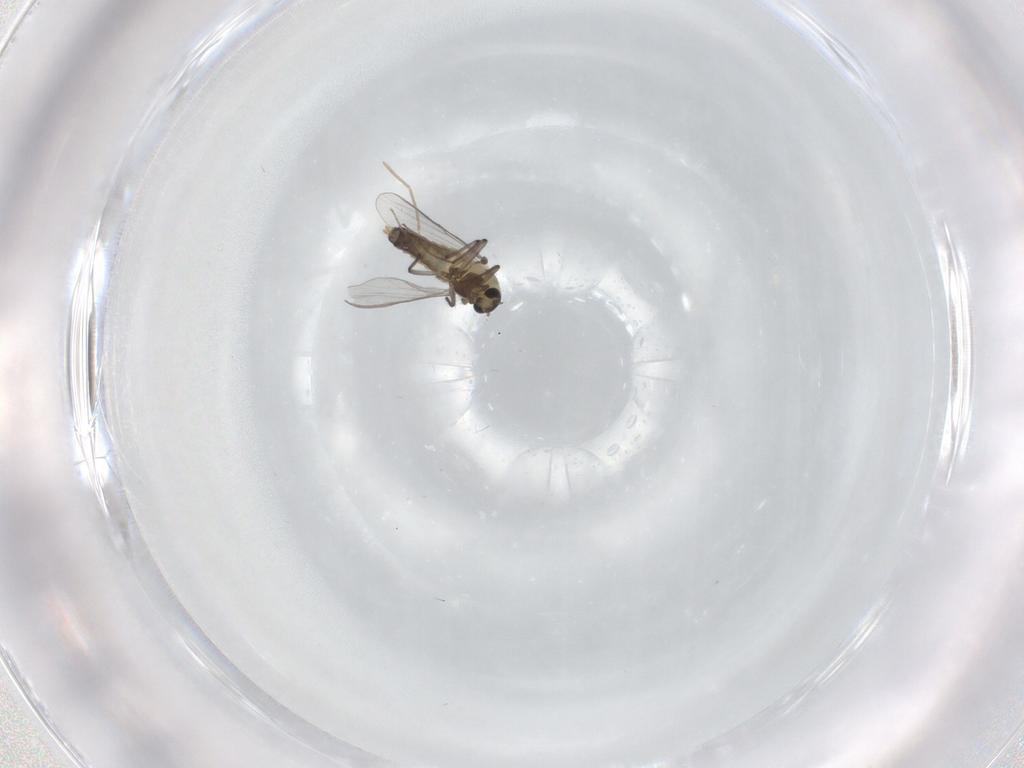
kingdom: Animalia
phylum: Arthropoda
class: Insecta
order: Diptera
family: Chironomidae
